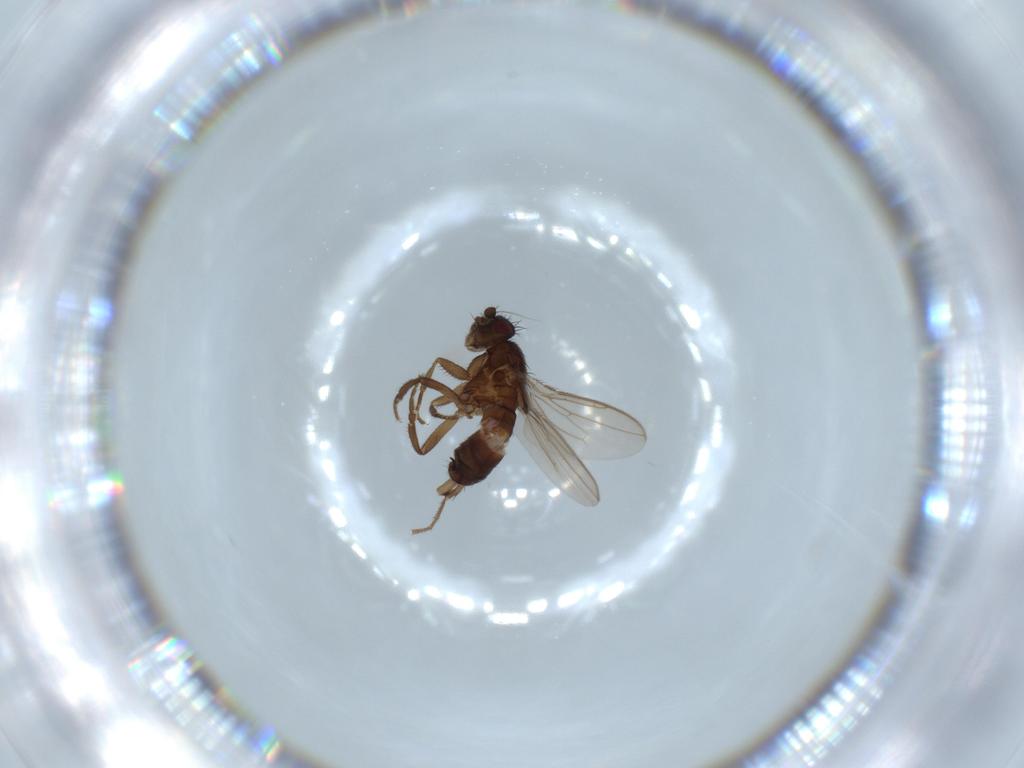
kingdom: Animalia
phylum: Arthropoda
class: Insecta
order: Diptera
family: Sphaeroceridae
